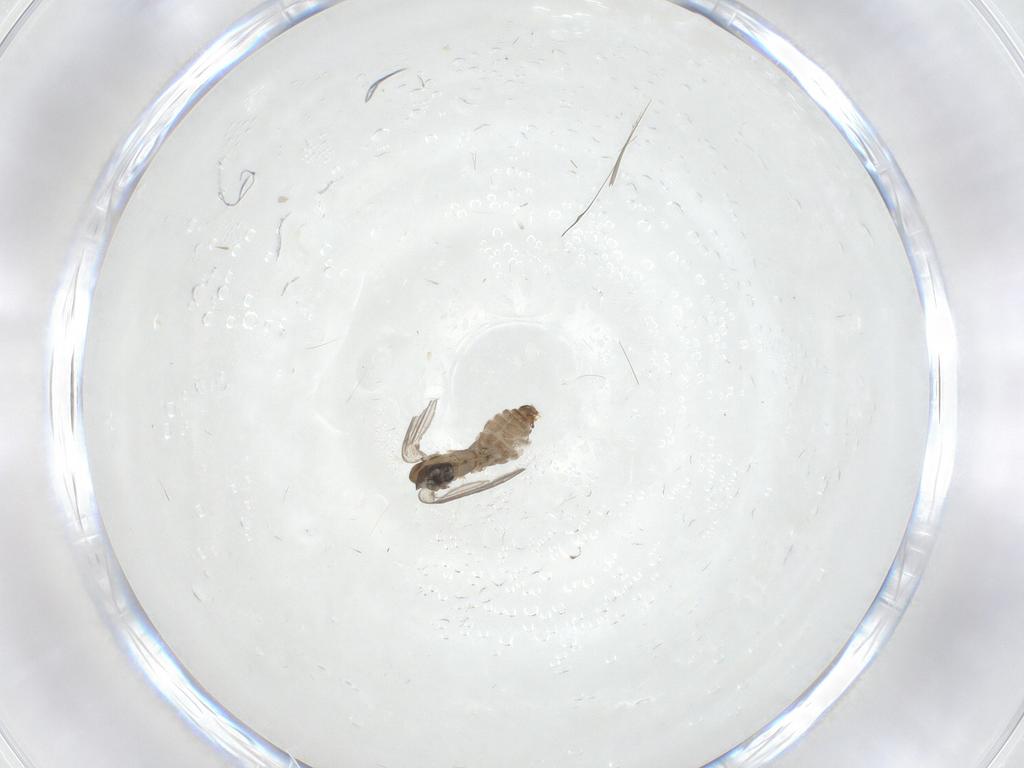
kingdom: Animalia
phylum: Arthropoda
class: Insecta
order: Diptera
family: Psychodidae
